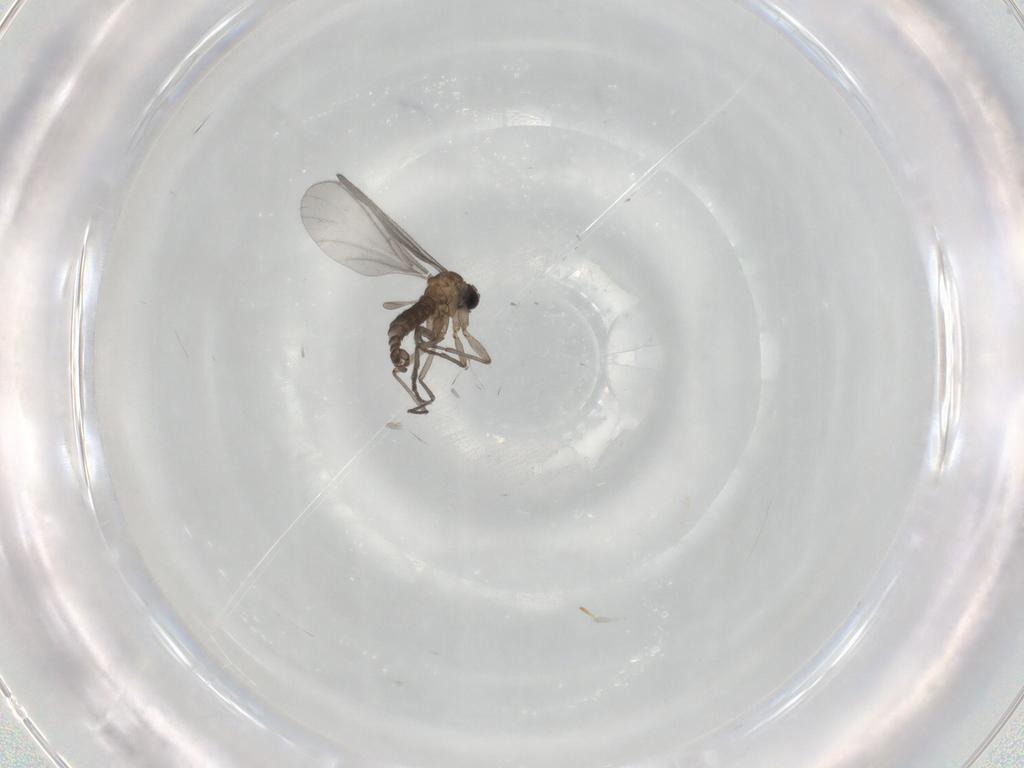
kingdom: Animalia
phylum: Arthropoda
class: Insecta
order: Diptera
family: Sciaridae
